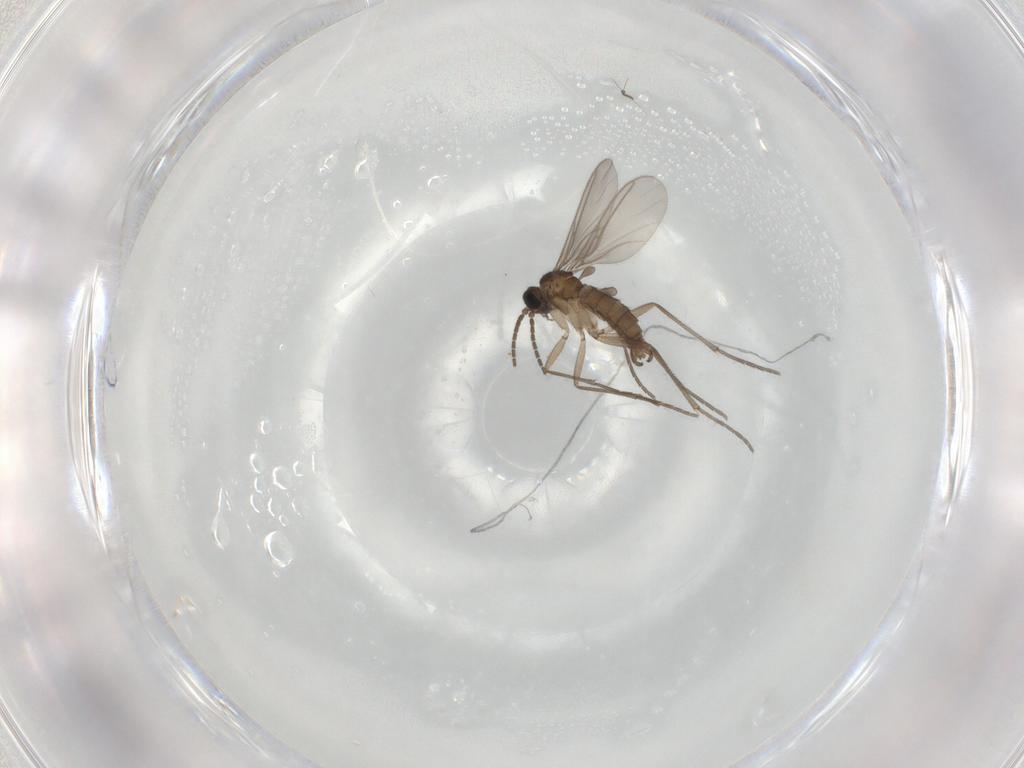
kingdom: Animalia
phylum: Arthropoda
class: Insecta
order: Diptera
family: Sciaridae
